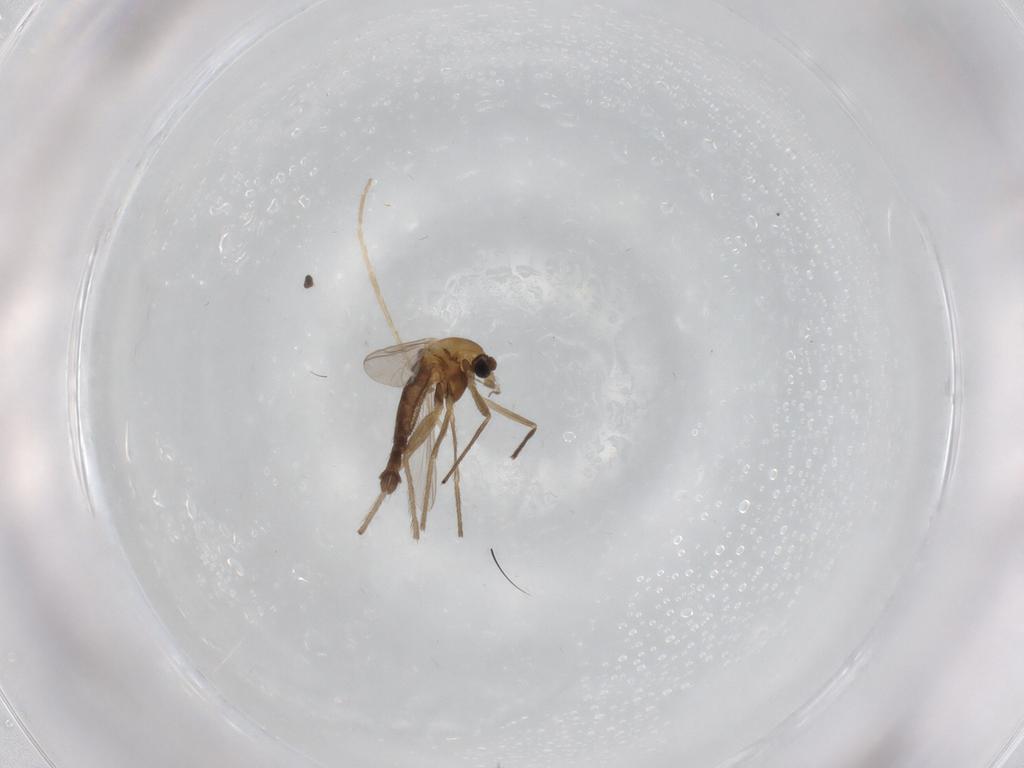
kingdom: Animalia
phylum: Arthropoda
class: Insecta
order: Diptera
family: Chironomidae
